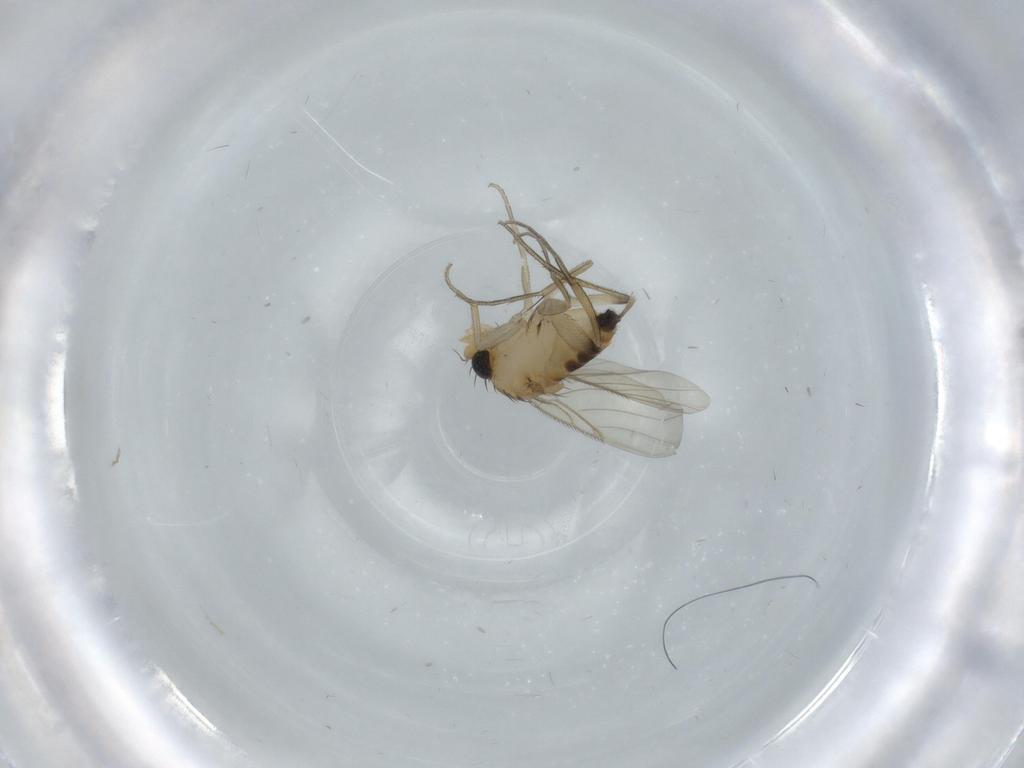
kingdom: Animalia
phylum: Arthropoda
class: Insecta
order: Diptera
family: Phoridae
